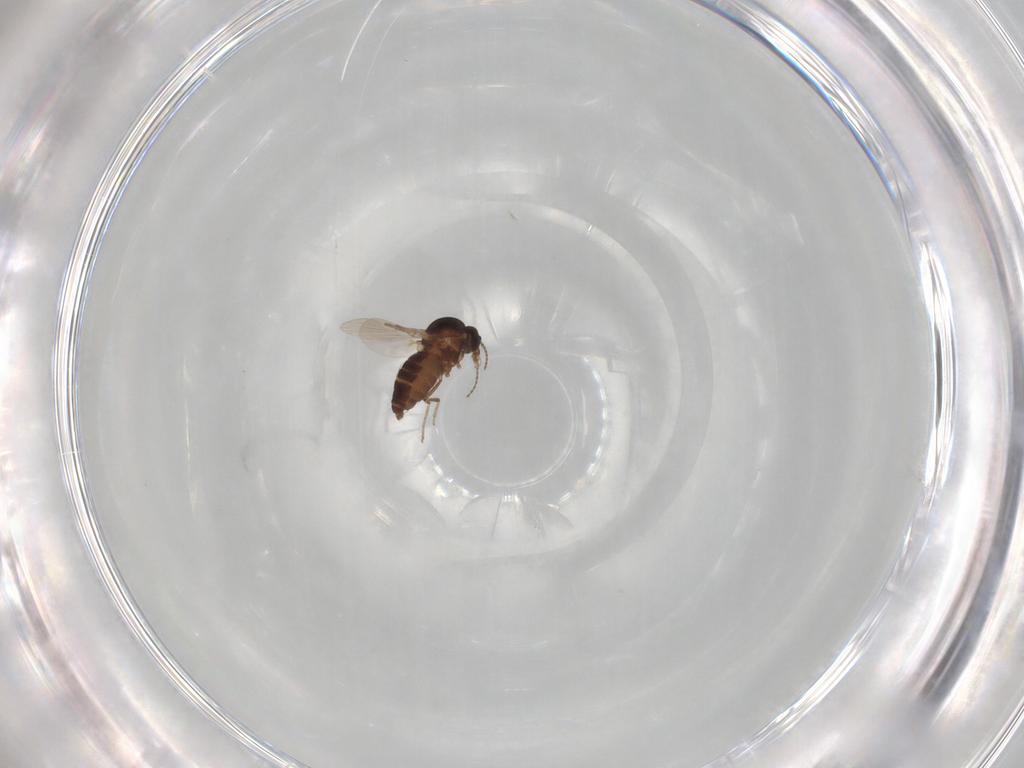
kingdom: Animalia
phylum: Arthropoda
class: Insecta
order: Diptera
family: Ceratopogonidae
